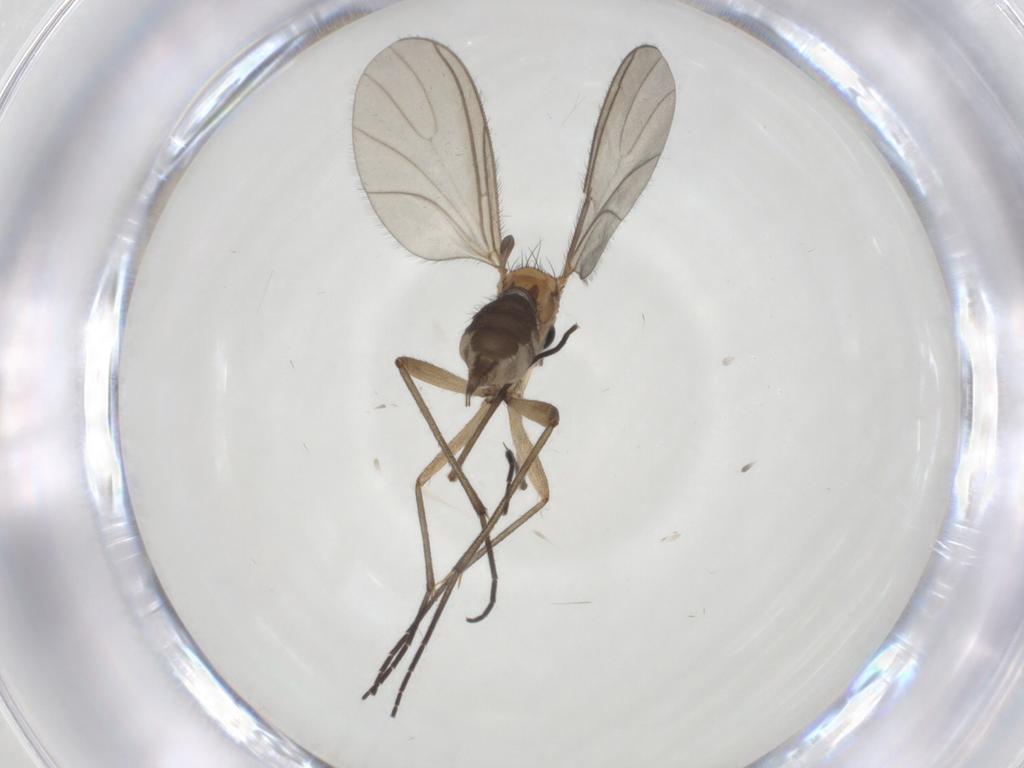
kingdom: Animalia
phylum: Arthropoda
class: Insecta
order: Diptera
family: Sciaridae
